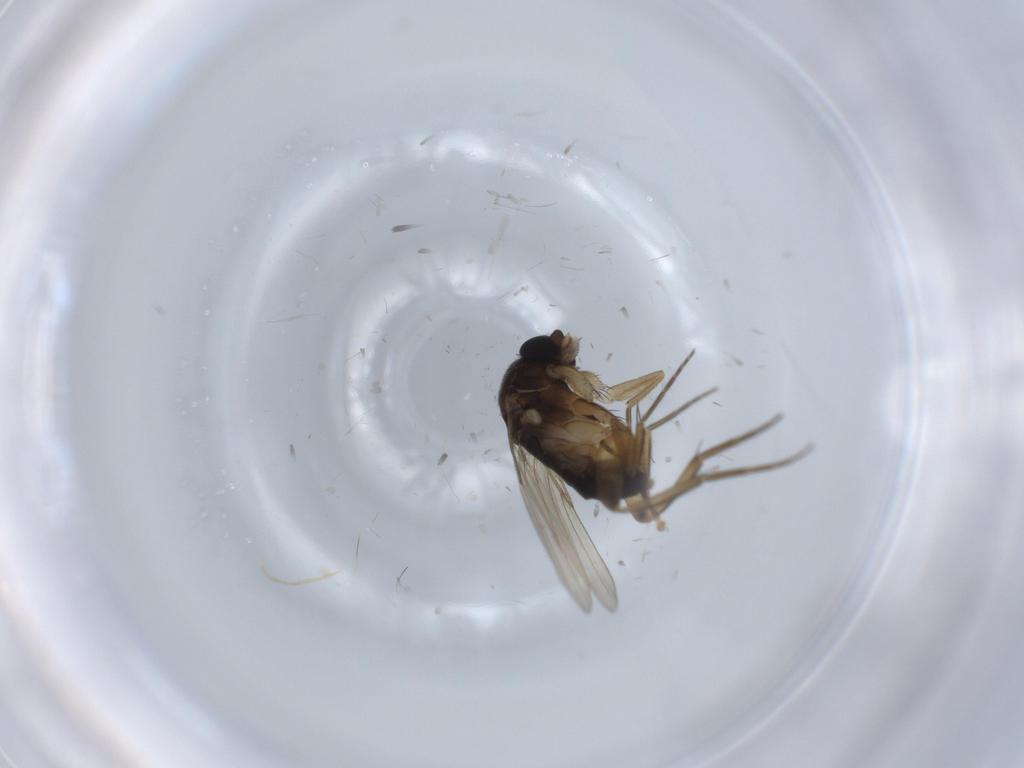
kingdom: Animalia
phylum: Arthropoda
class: Insecta
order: Diptera
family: Cecidomyiidae
